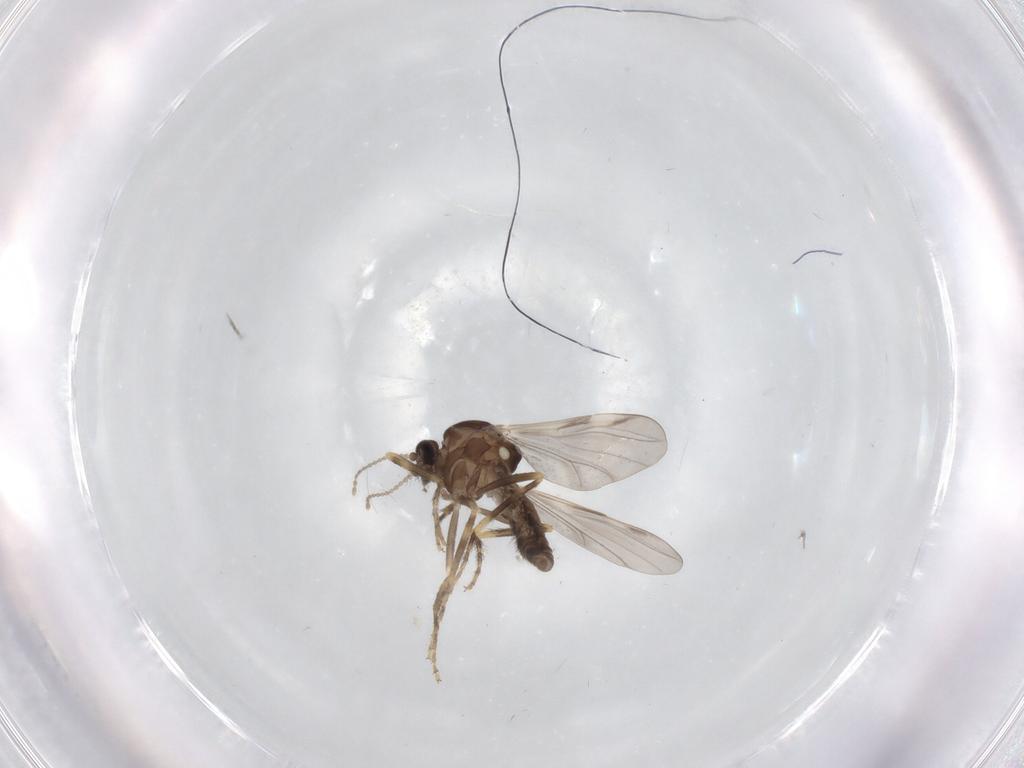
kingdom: Animalia
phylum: Arthropoda
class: Insecta
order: Diptera
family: Ceratopogonidae
